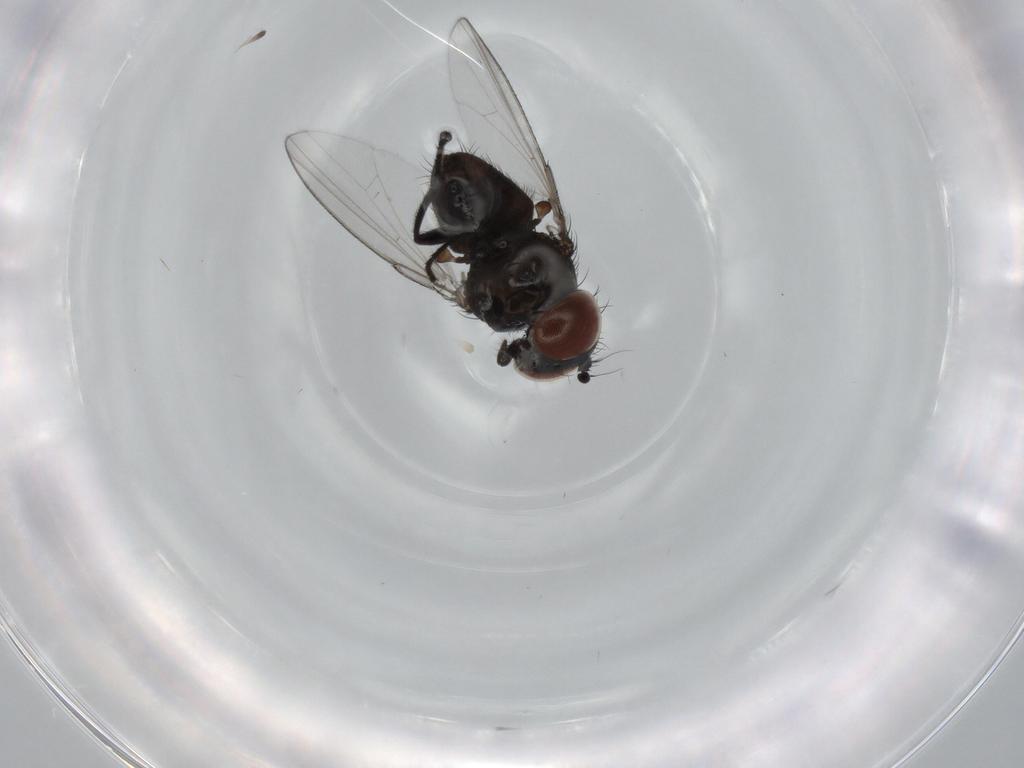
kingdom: Animalia
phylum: Arthropoda
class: Insecta
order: Diptera
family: Milichiidae
